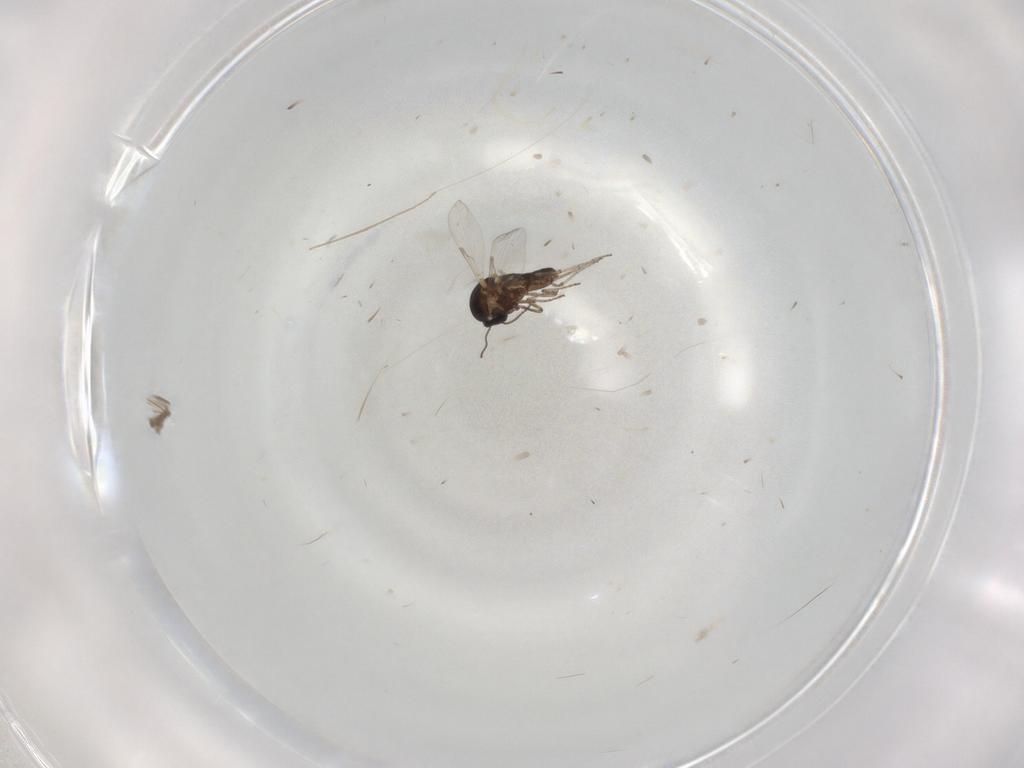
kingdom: Animalia
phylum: Arthropoda
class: Insecta
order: Diptera
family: Ceratopogonidae
